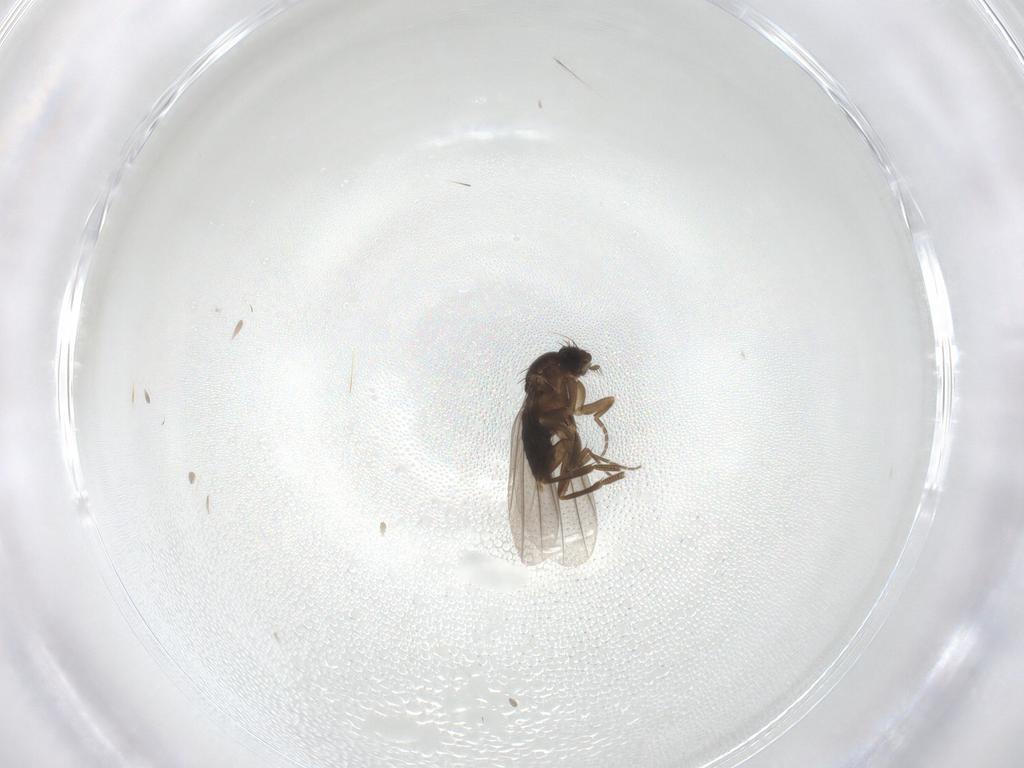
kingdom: Animalia
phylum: Arthropoda
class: Insecta
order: Diptera
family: Phoridae
